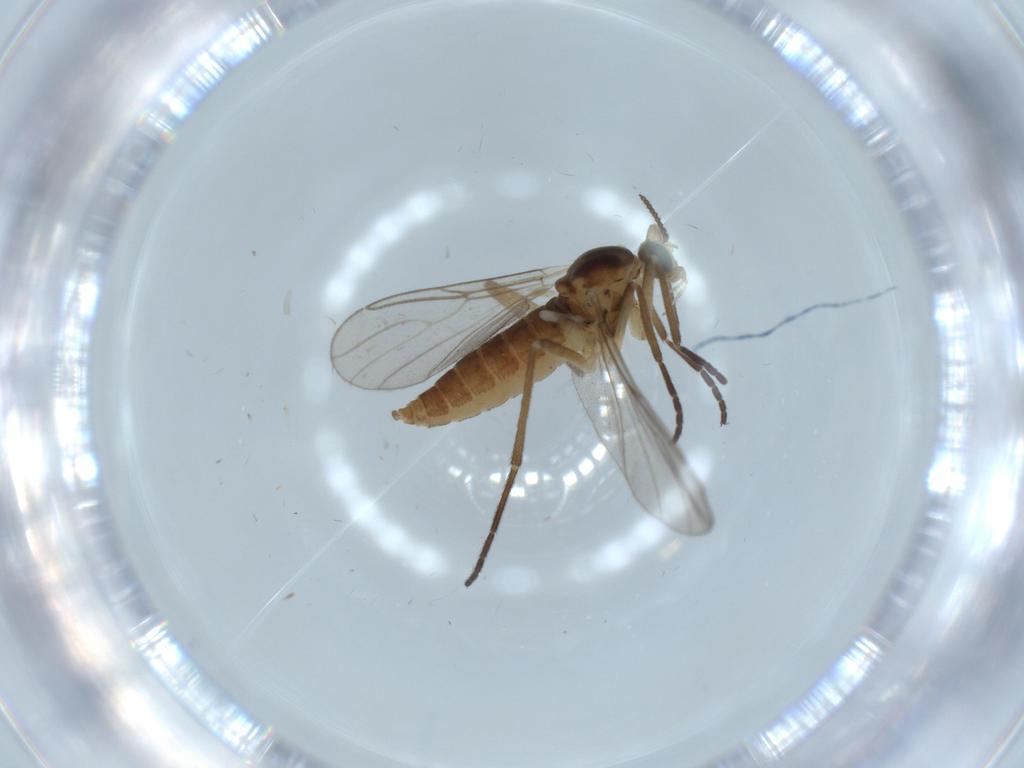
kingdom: Animalia
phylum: Arthropoda
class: Insecta
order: Diptera
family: Cecidomyiidae
